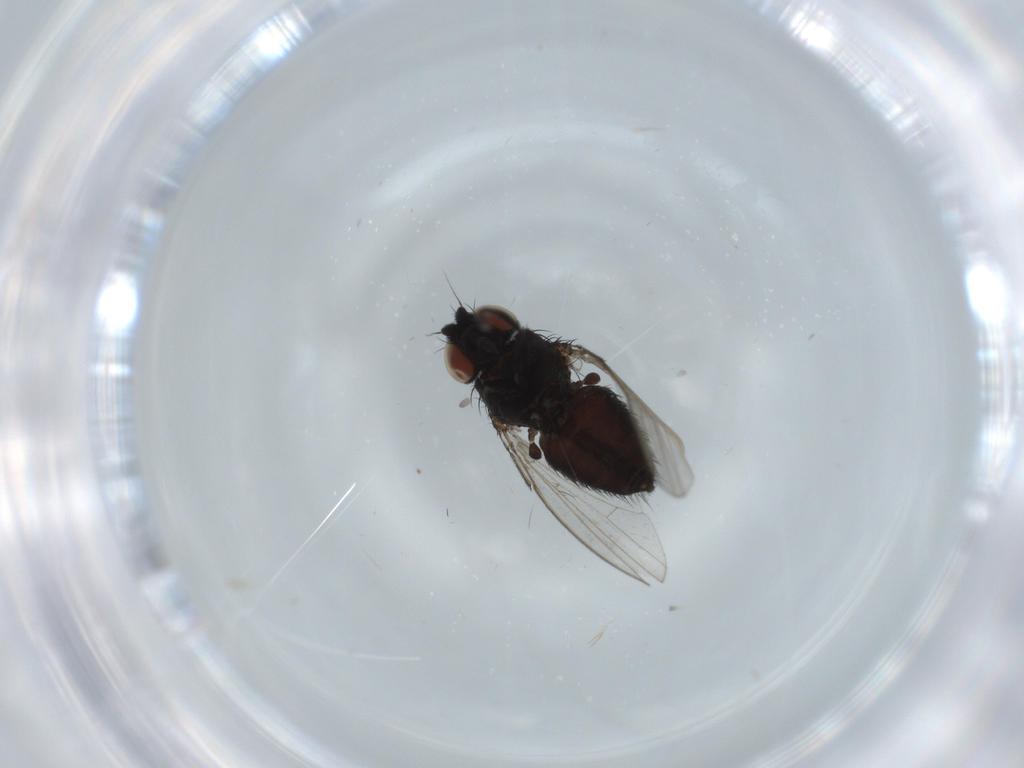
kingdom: Animalia
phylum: Arthropoda
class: Insecta
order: Diptera
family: Milichiidae
